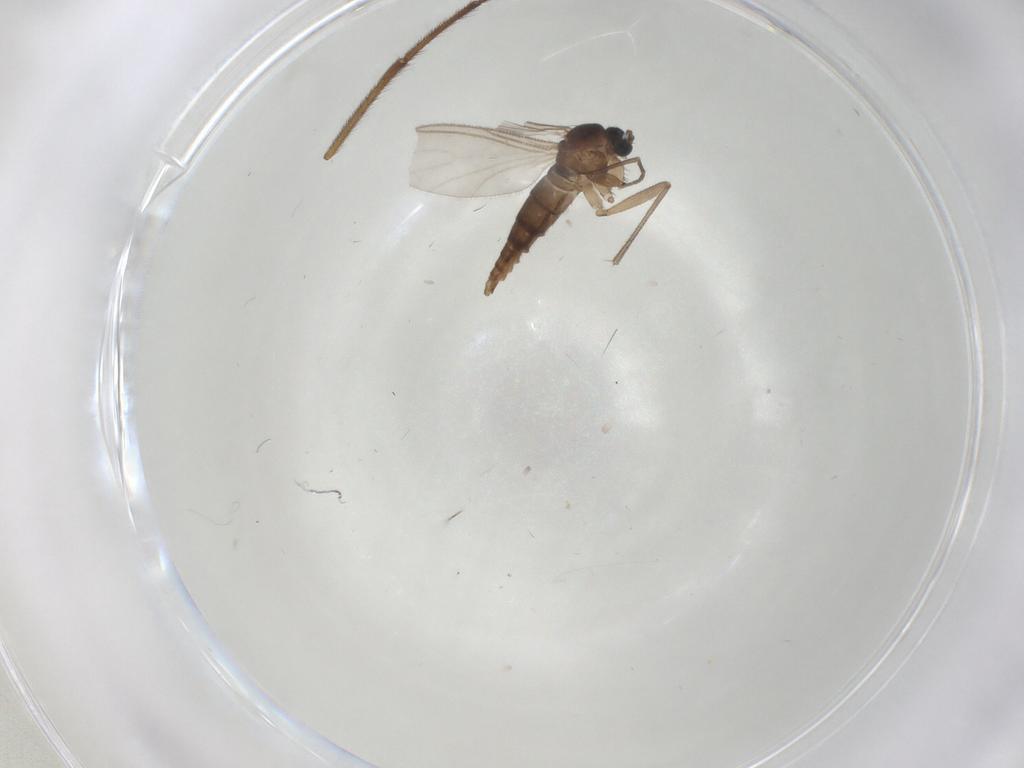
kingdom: Animalia
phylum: Arthropoda
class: Insecta
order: Diptera
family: Sciaridae
